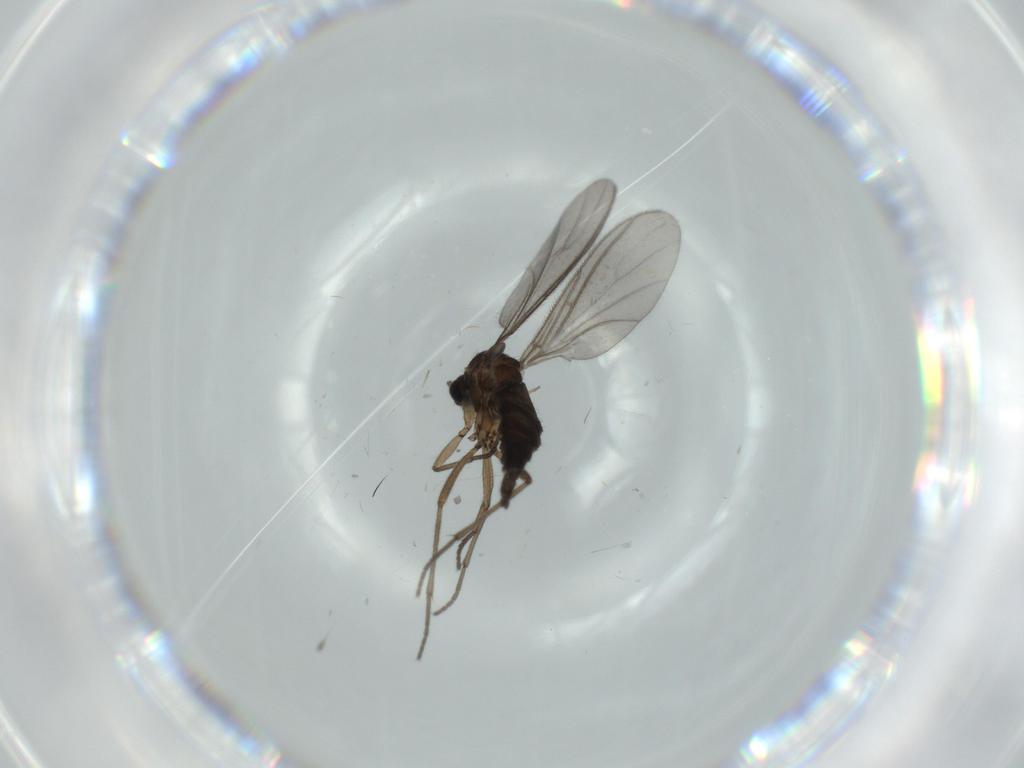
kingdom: Animalia
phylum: Arthropoda
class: Insecta
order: Diptera
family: Sciaridae
